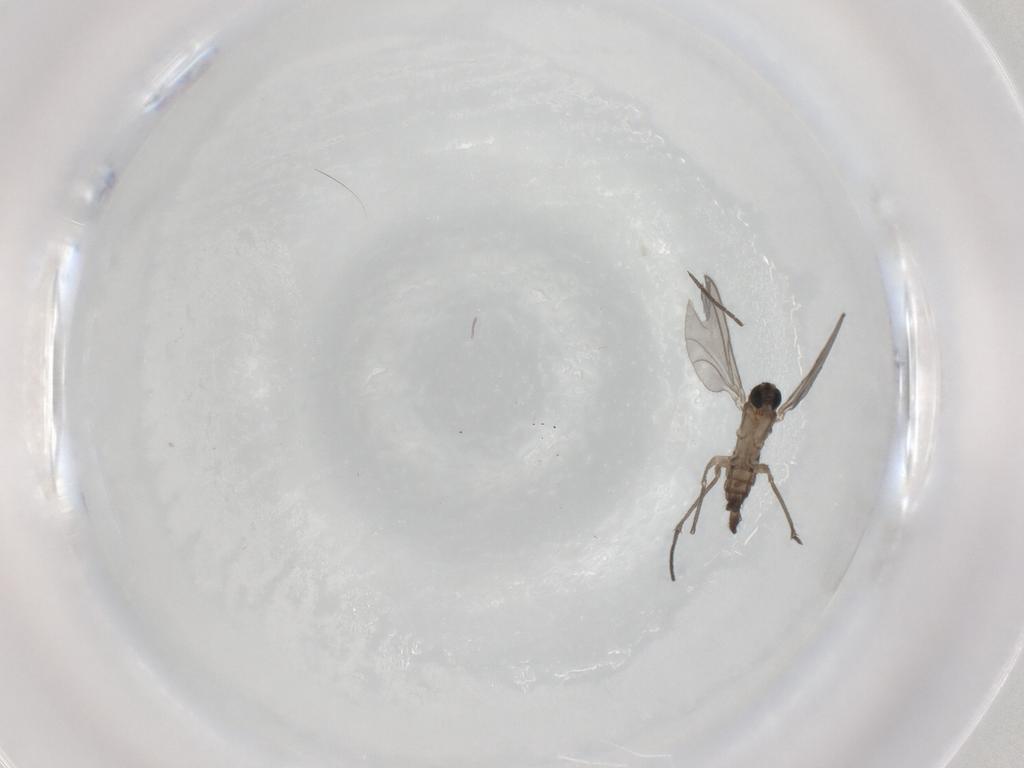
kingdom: Animalia
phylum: Arthropoda
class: Insecta
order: Diptera
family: Sciaridae
